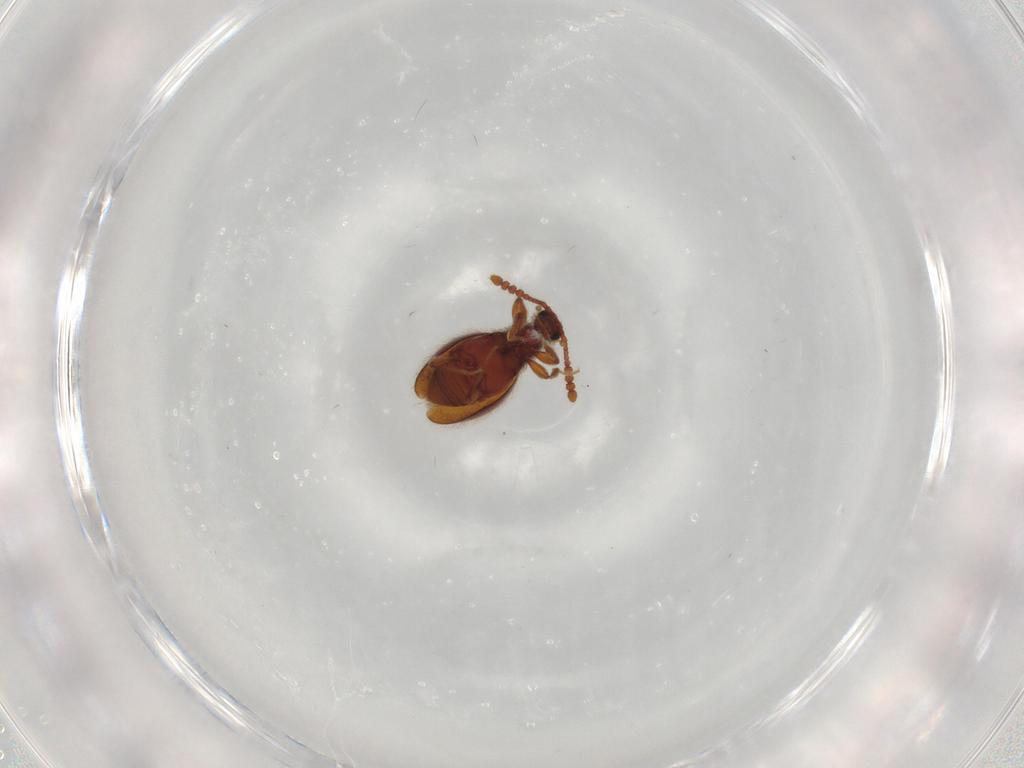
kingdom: Animalia
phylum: Arthropoda
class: Insecta
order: Coleoptera
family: Staphylinidae
